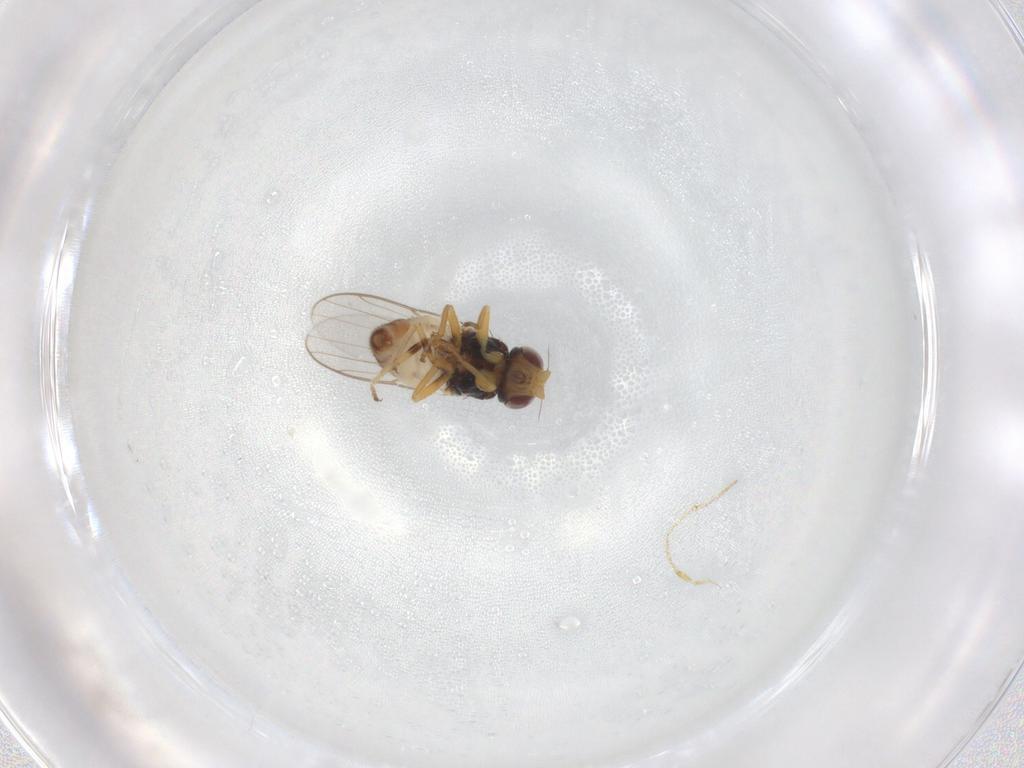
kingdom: Animalia
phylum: Arthropoda
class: Insecta
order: Diptera
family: Chloropidae
